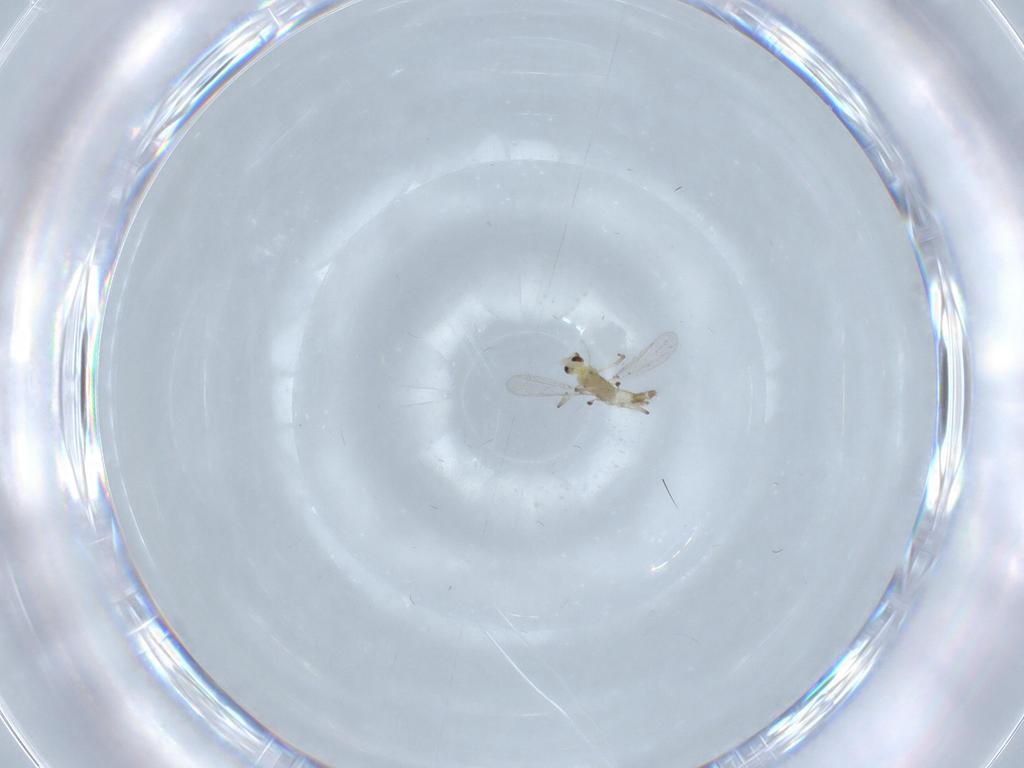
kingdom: Animalia
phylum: Arthropoda
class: Insecta
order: Diptera
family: Chironomidae
